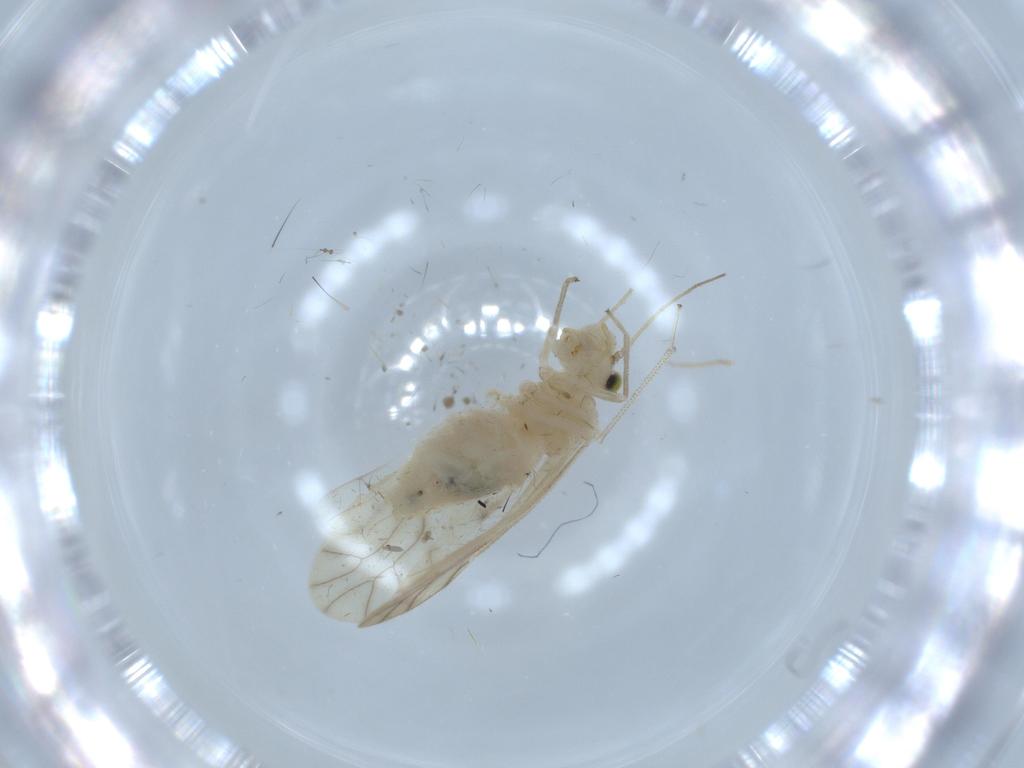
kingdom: Animalia
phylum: Arthropoda
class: Insecta
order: Psocodea
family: Caeciliusidae
